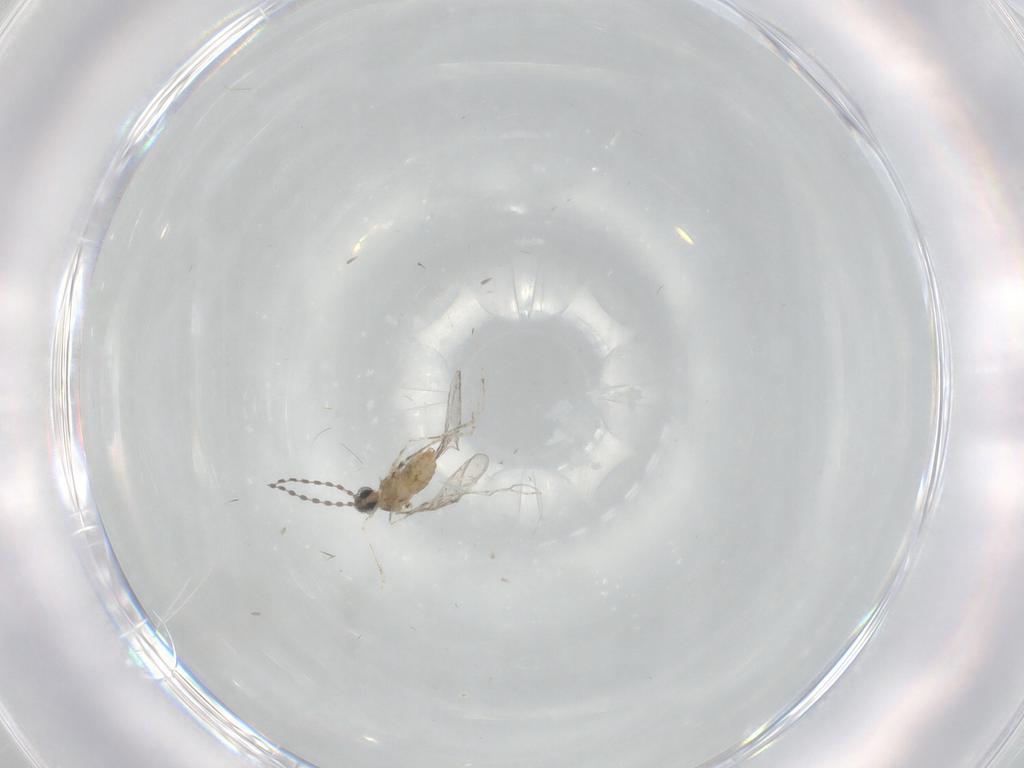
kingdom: Animalia
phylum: Arthropoda
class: Insecta
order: Diptera
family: Cecidomyiidae
